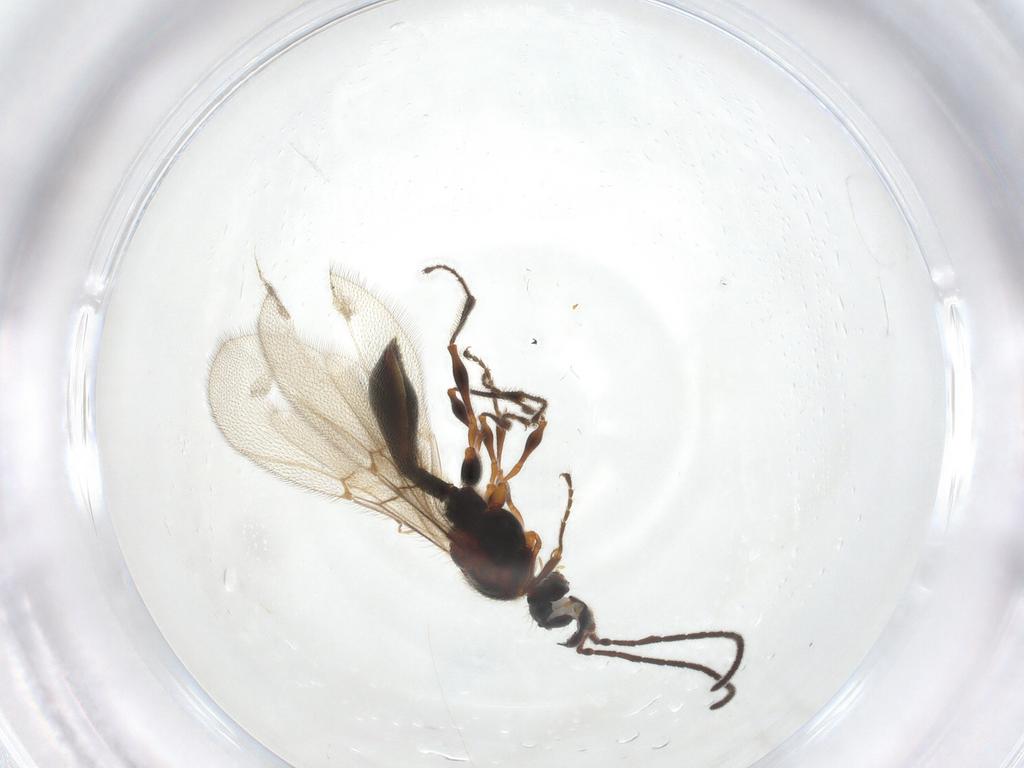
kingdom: Animalia
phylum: Arthropoda
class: Insecta
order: Hymenoptera
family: Diapriidae
